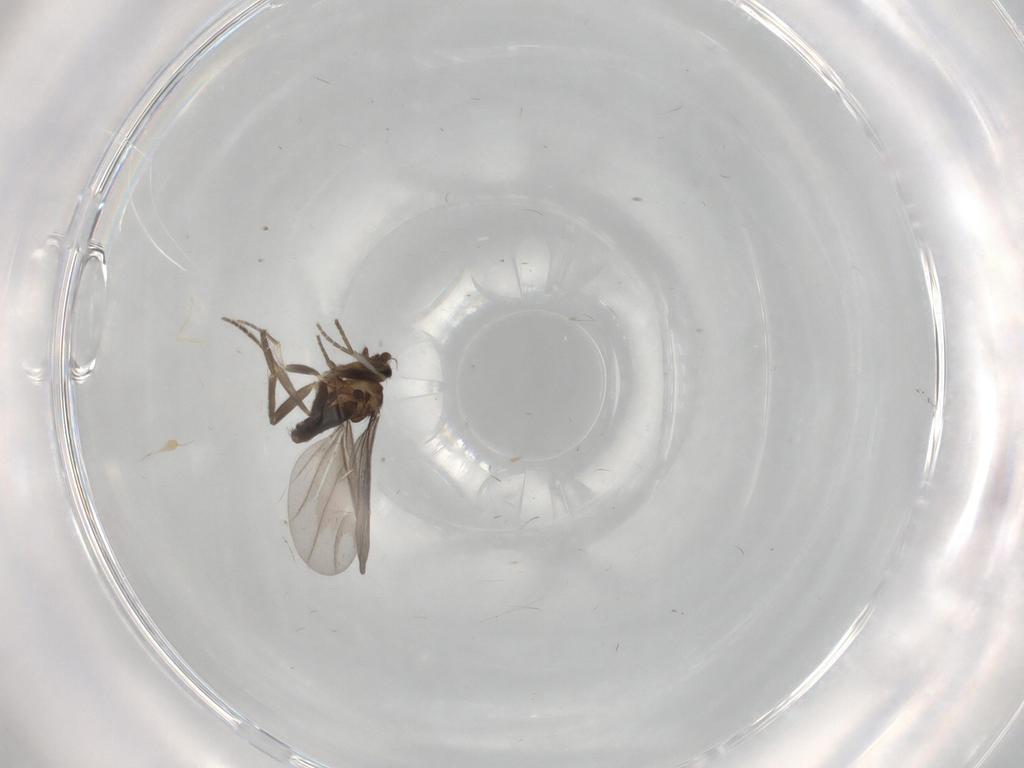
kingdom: Animalia
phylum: Arthropoda
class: Insecta
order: Diptera
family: Phoridae
